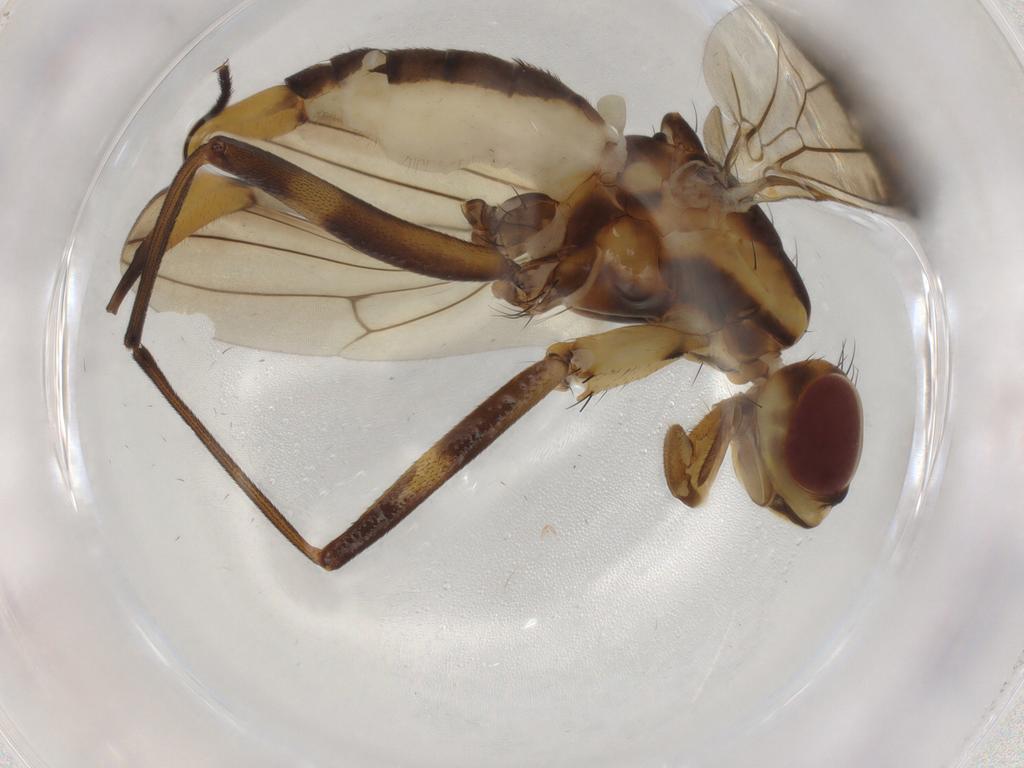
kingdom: Animalia
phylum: Arthropoda
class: Insecta
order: Diptera
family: Neriidae
